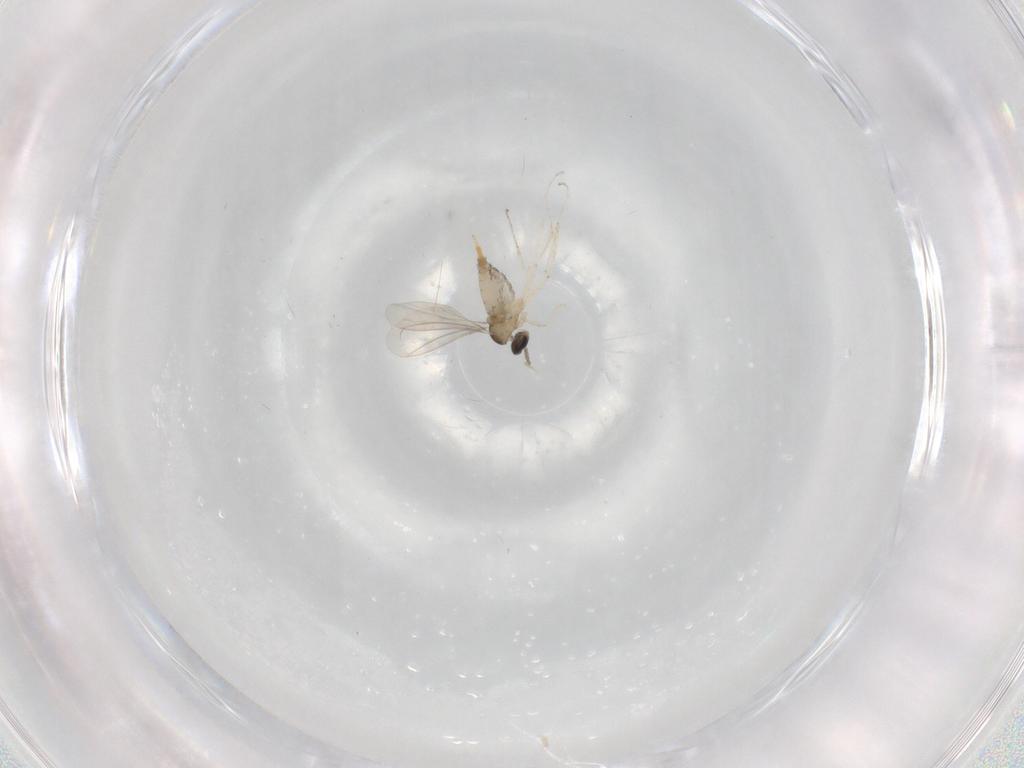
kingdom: Animalia
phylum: Arthropoda
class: Insecta
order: Diptera
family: Cecidomyiidae
